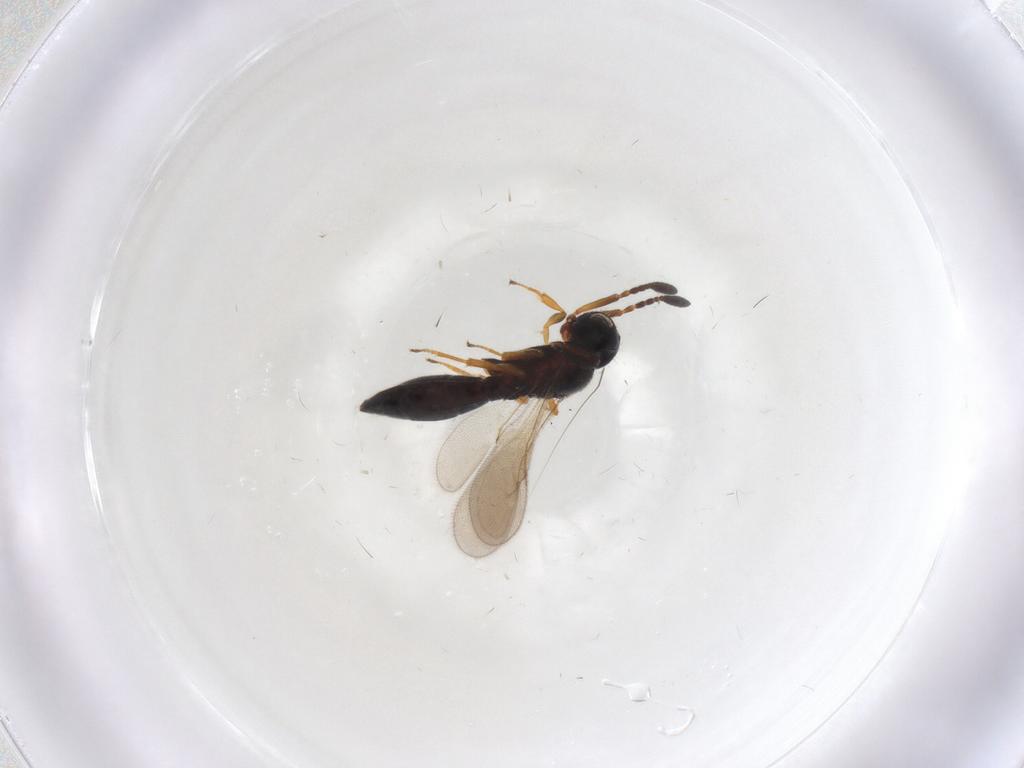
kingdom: Animalia
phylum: Arthropoda
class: Insecta
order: Hymenoptera
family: Scelionidae
